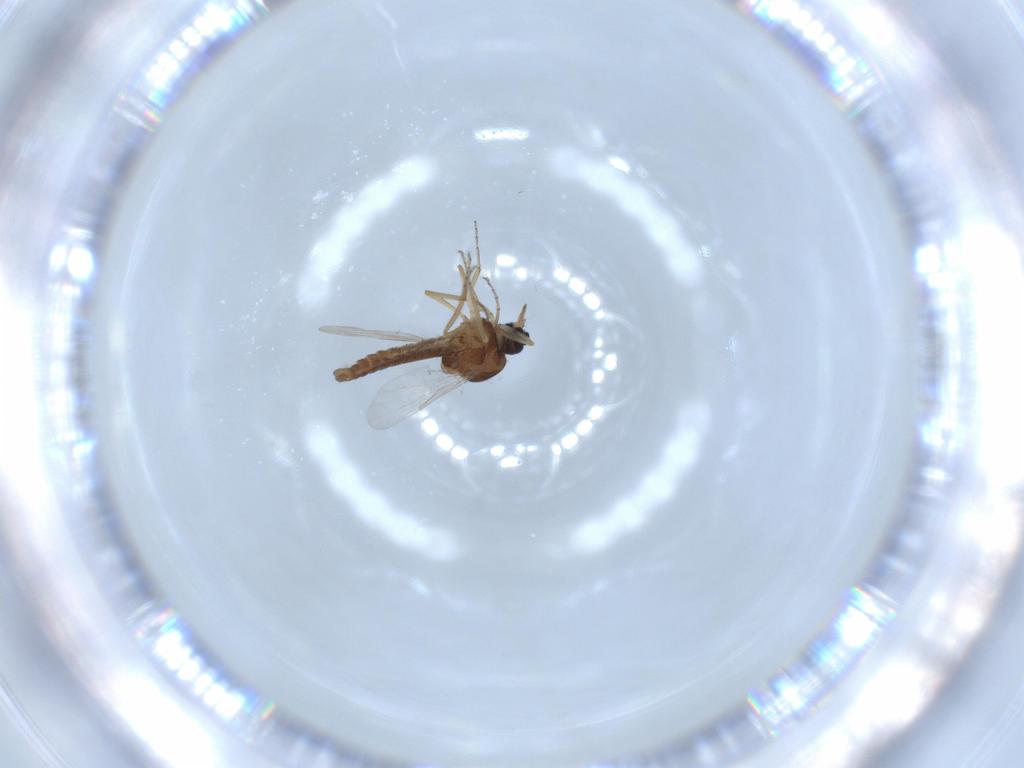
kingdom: Animalia
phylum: Arthropoda
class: Insecta
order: Diptera
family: Ceratopogonidae
